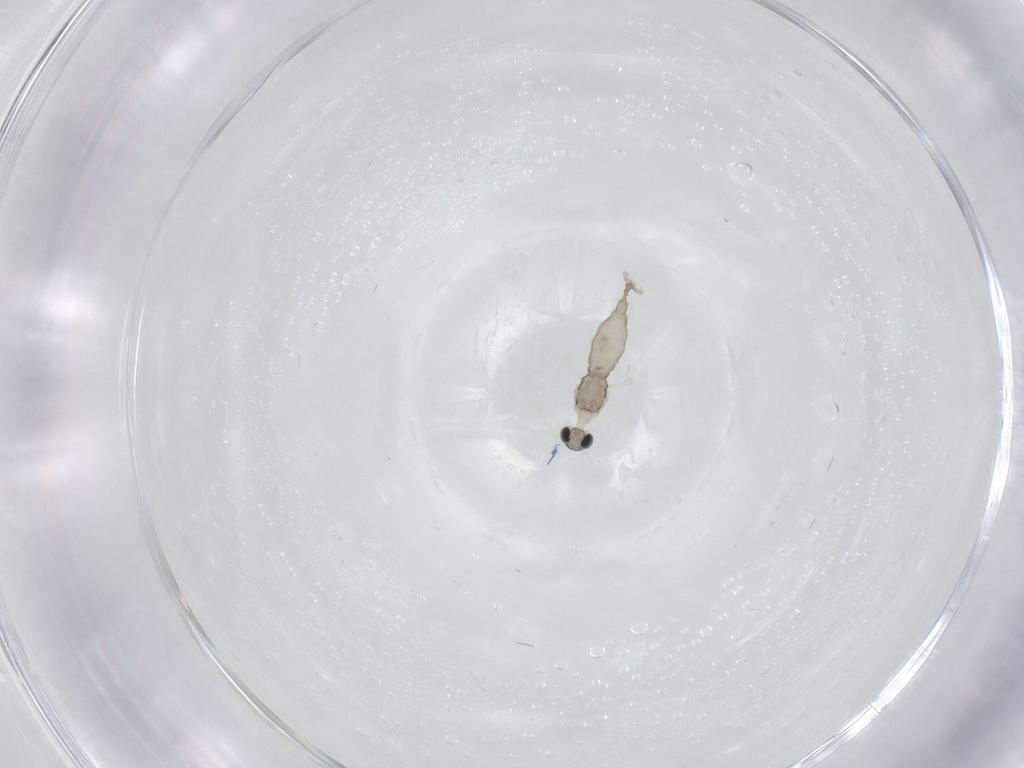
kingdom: Animalia
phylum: Arthropoda
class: Insecta
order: Diptera
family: Cecidomyiidae
